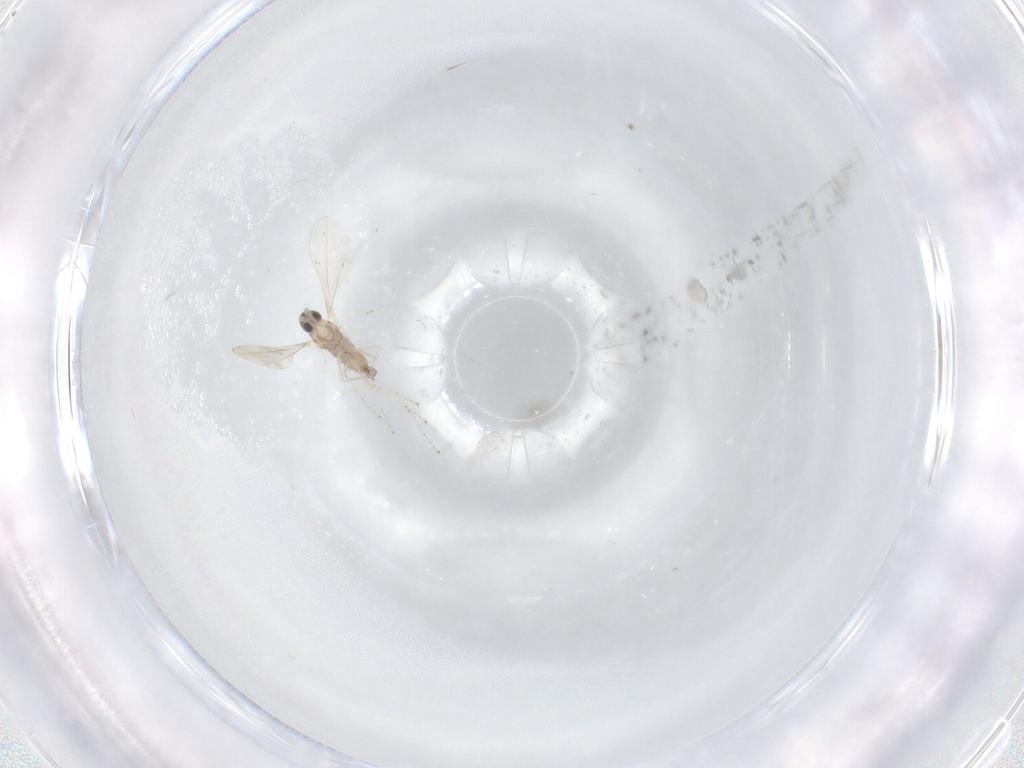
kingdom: Animalia
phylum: Arthropoda
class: Insecta
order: Diptera
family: Cecidomyiidae
